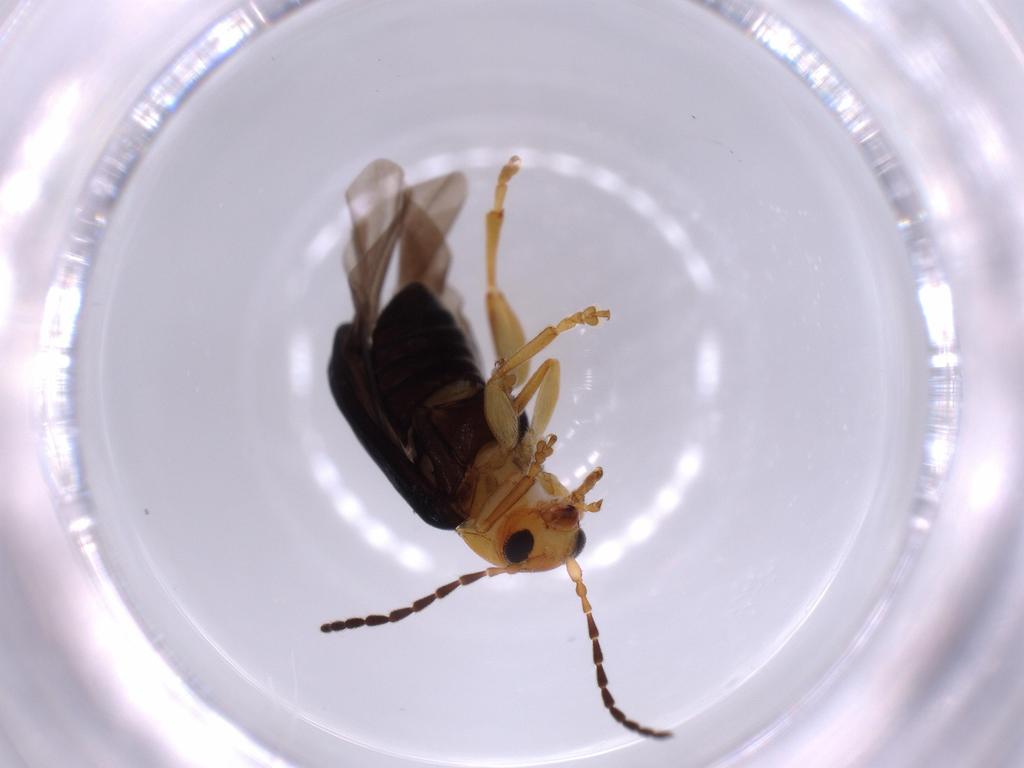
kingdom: Animalia
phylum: Arthropoda
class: Insecta
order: Coleoptera
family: Chrysomelidae
